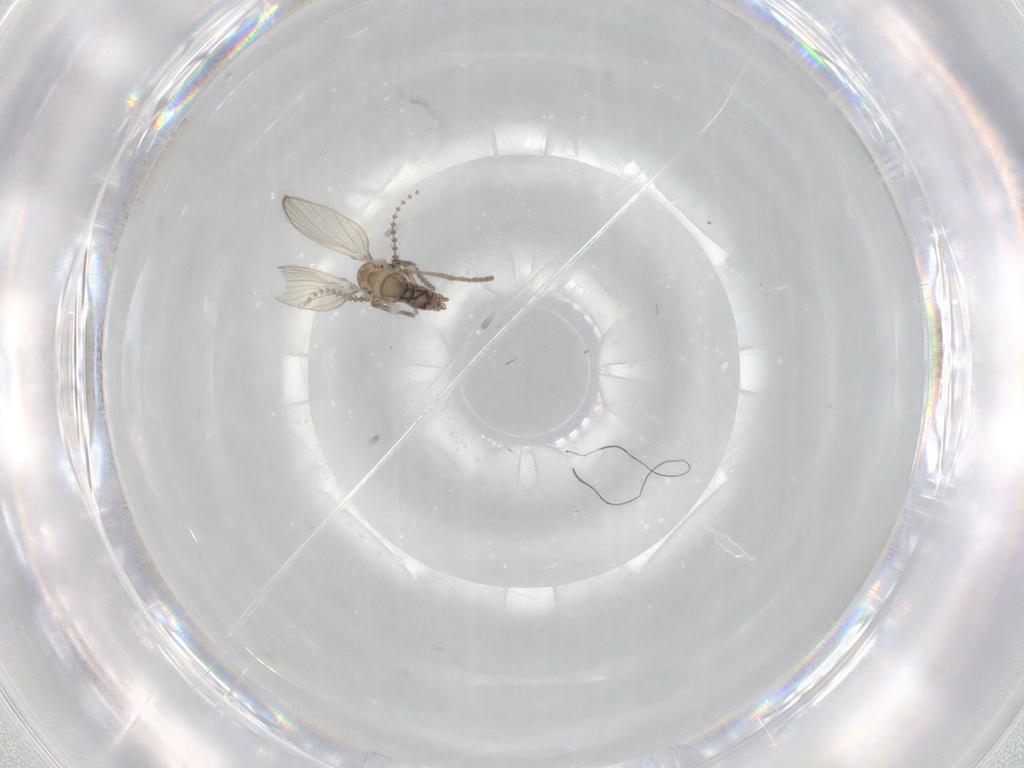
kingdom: Animalia
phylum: Arthropoda
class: Insecta
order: Diptera
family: Psychodidae
